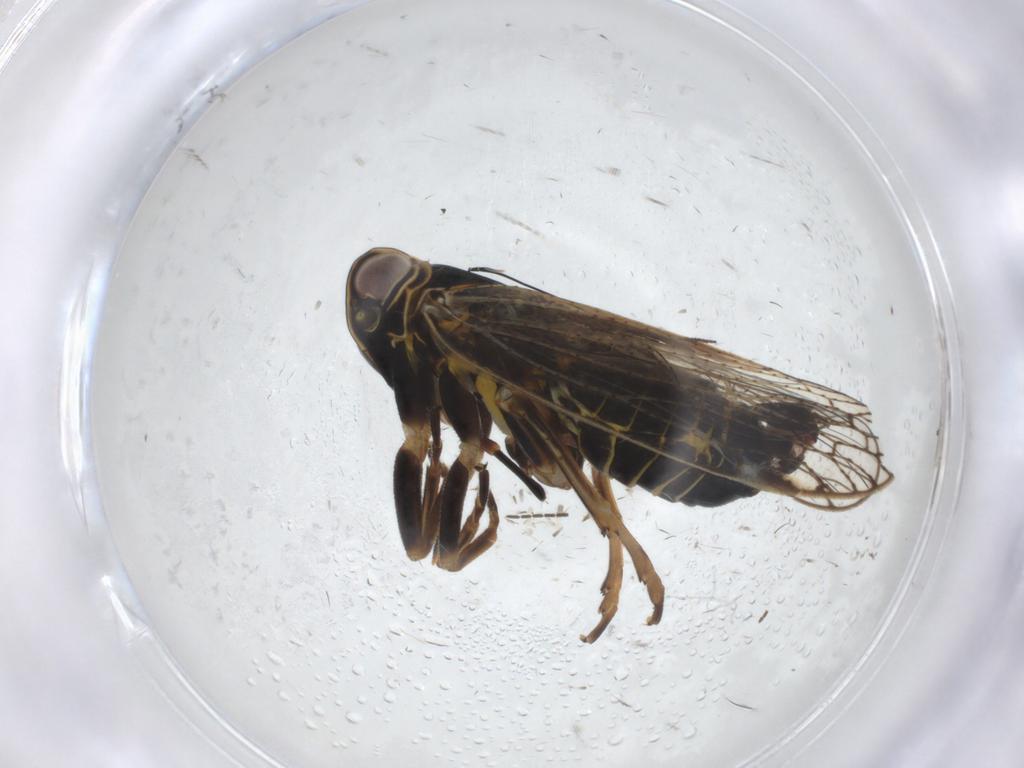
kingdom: Animalia
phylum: Arthropoda
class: Insecta
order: Hemiptera
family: Cixiidae
